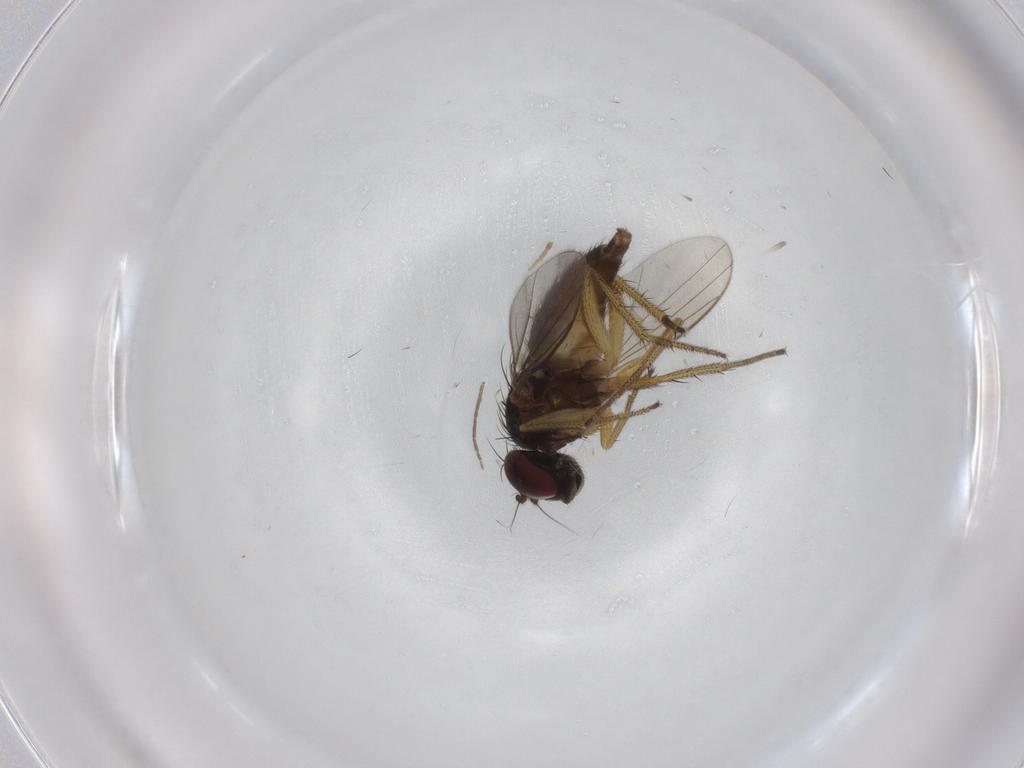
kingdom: Animalia
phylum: Arthropoda
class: Insecta
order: Diptera
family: Dolichopodidae
